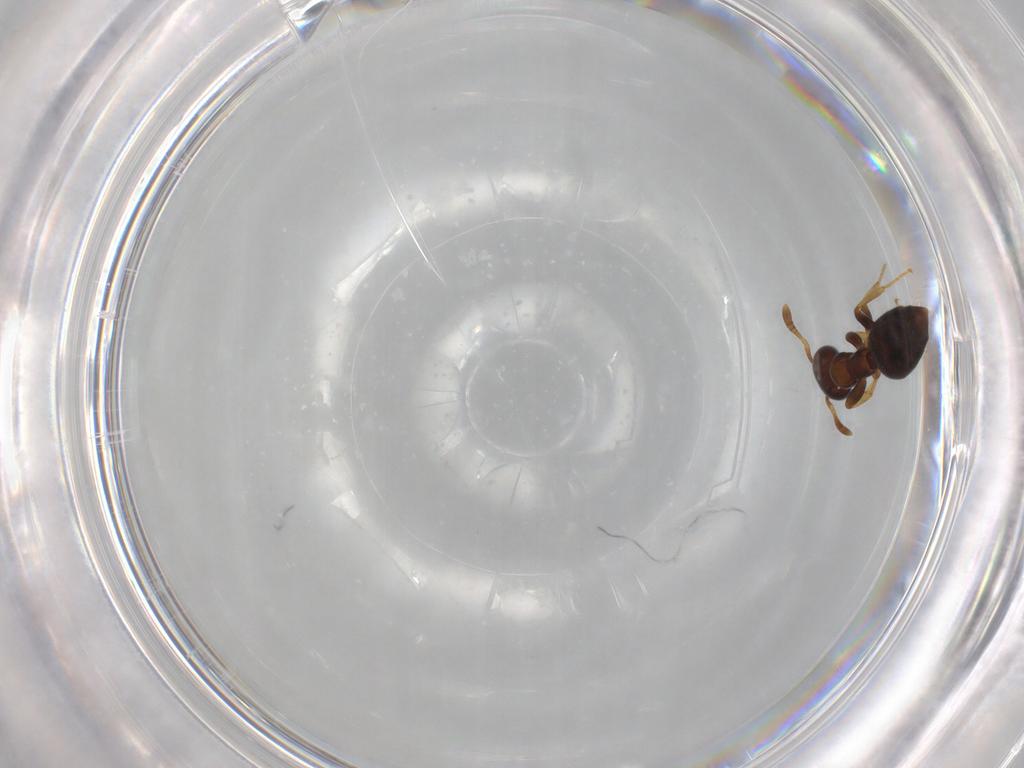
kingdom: Animalia
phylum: Arthropoda
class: Insecta
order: Hymenoptera
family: Formicidae
